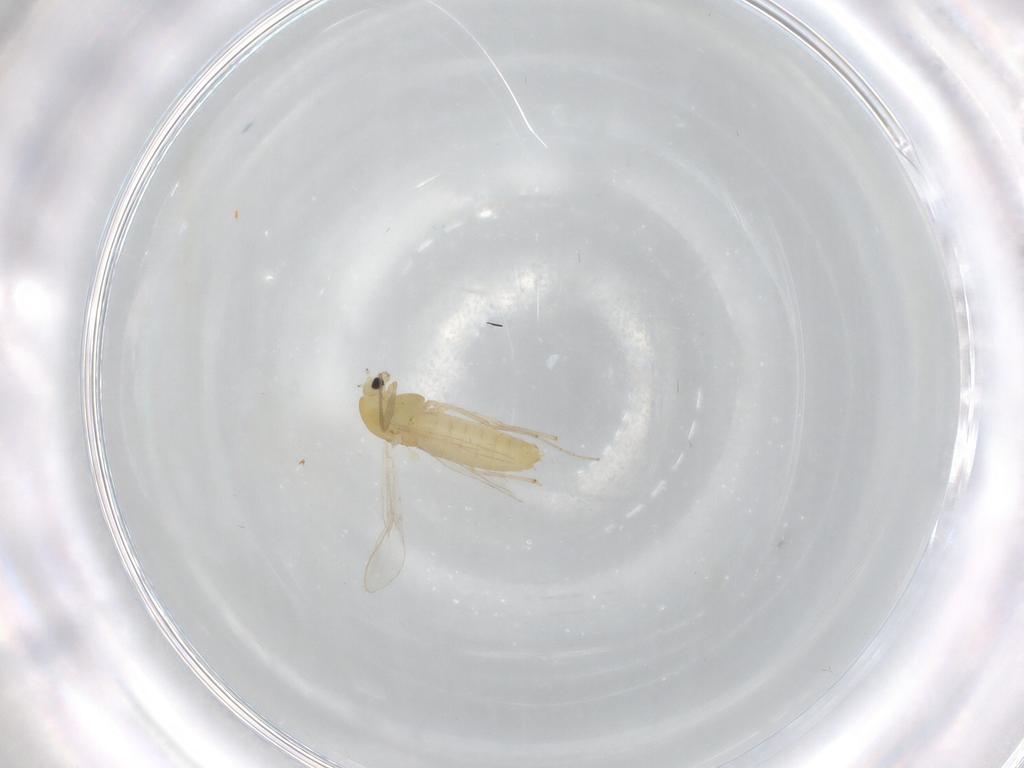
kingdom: Animalia
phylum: Arthropoda
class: Insecta
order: Diptera
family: Chironomidae
